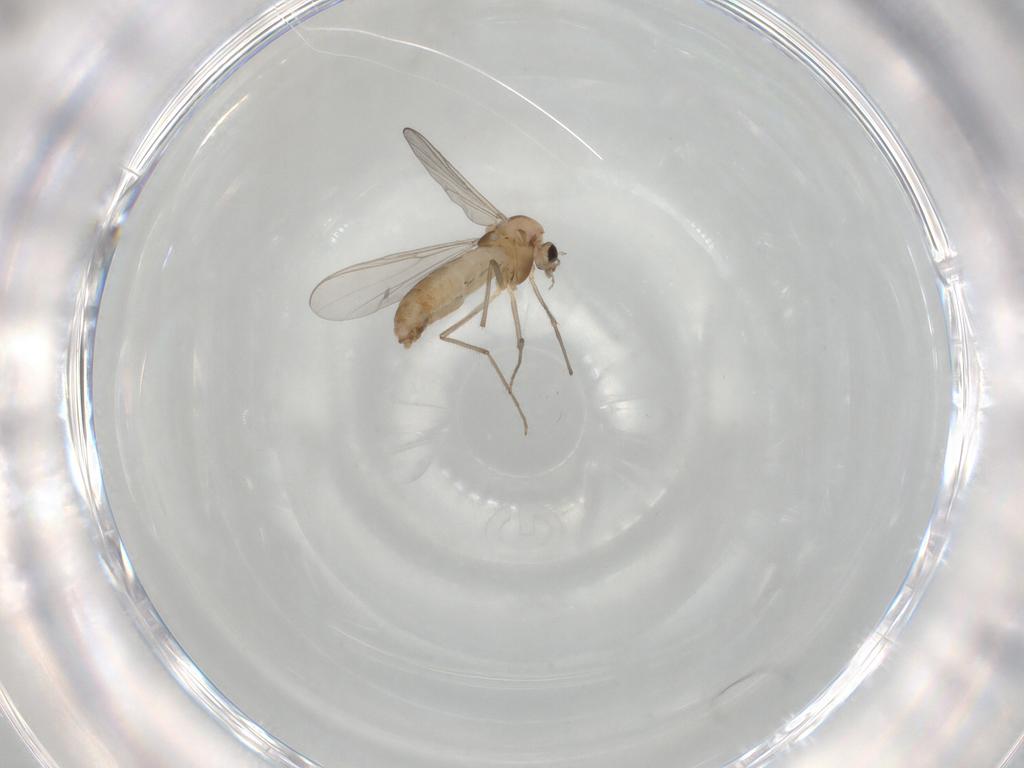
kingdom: Animalia
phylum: Arthropoda
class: Insecta
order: Diptera
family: Chironomidae
